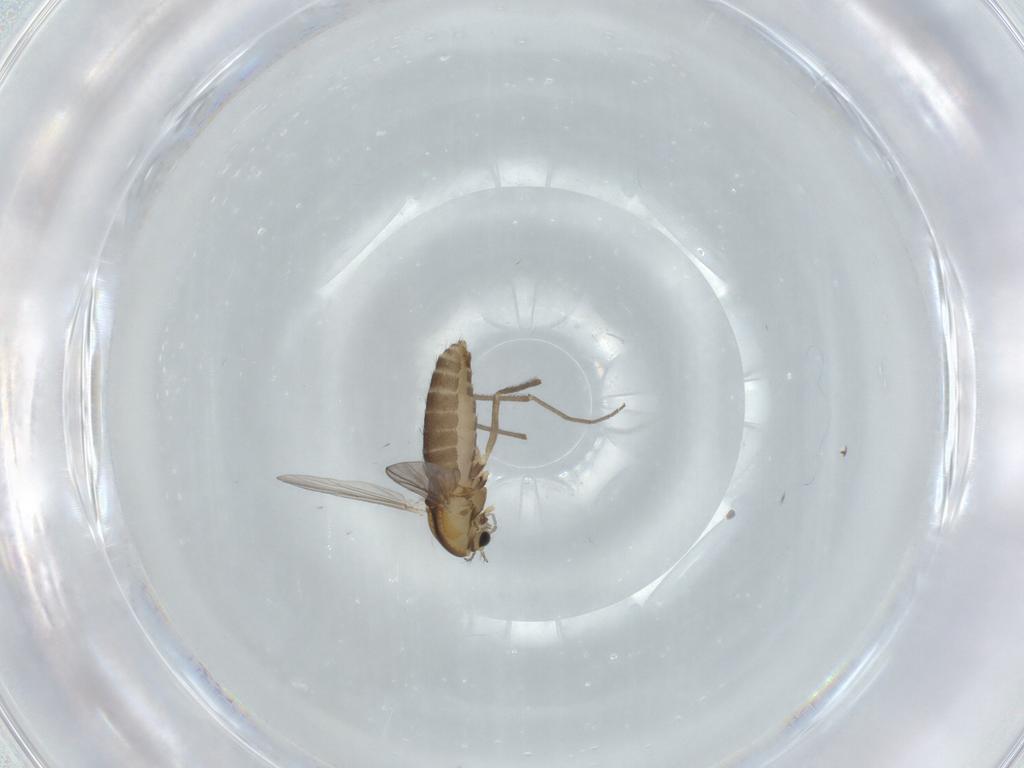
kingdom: Animalia
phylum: Arthropoda
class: Insecta
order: Diptera
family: Chironomidae
